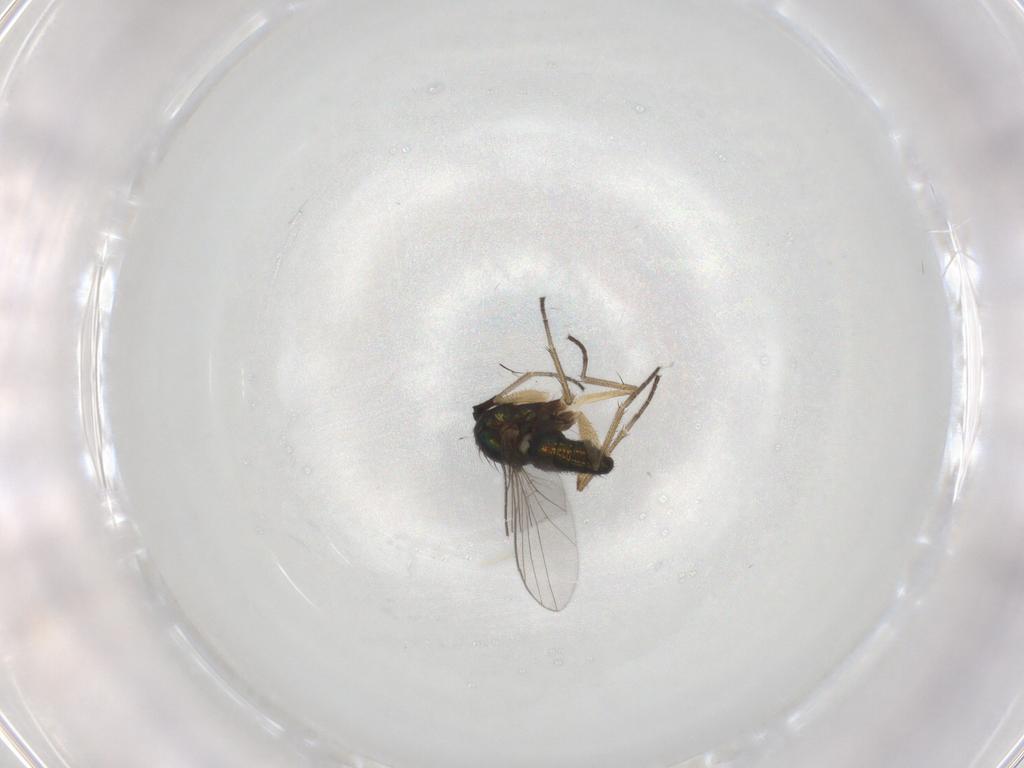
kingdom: Animalia
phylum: Arthropoda
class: Insecta
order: Diptera
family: Dolichopodidae
